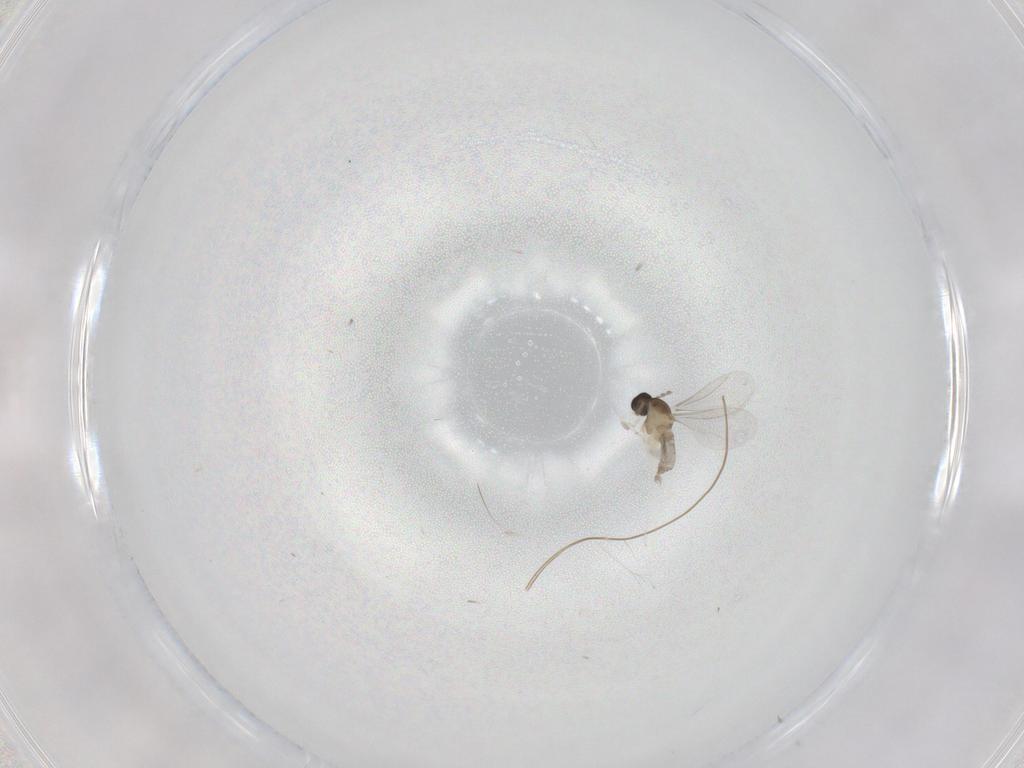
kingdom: Animalia
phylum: Arthropoda
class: Insecta
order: Diptera
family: Cecidomyiidae
